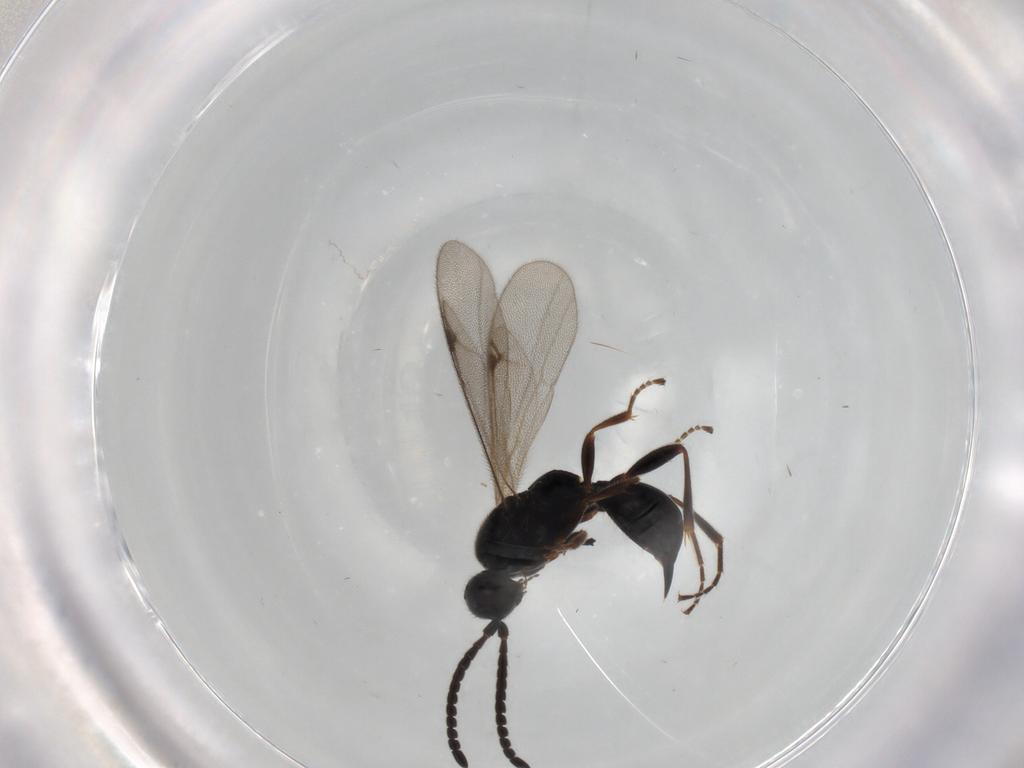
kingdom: Animalia
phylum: Arthropoda
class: Insecta
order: Hymenoptera
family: Proctotrupidae
